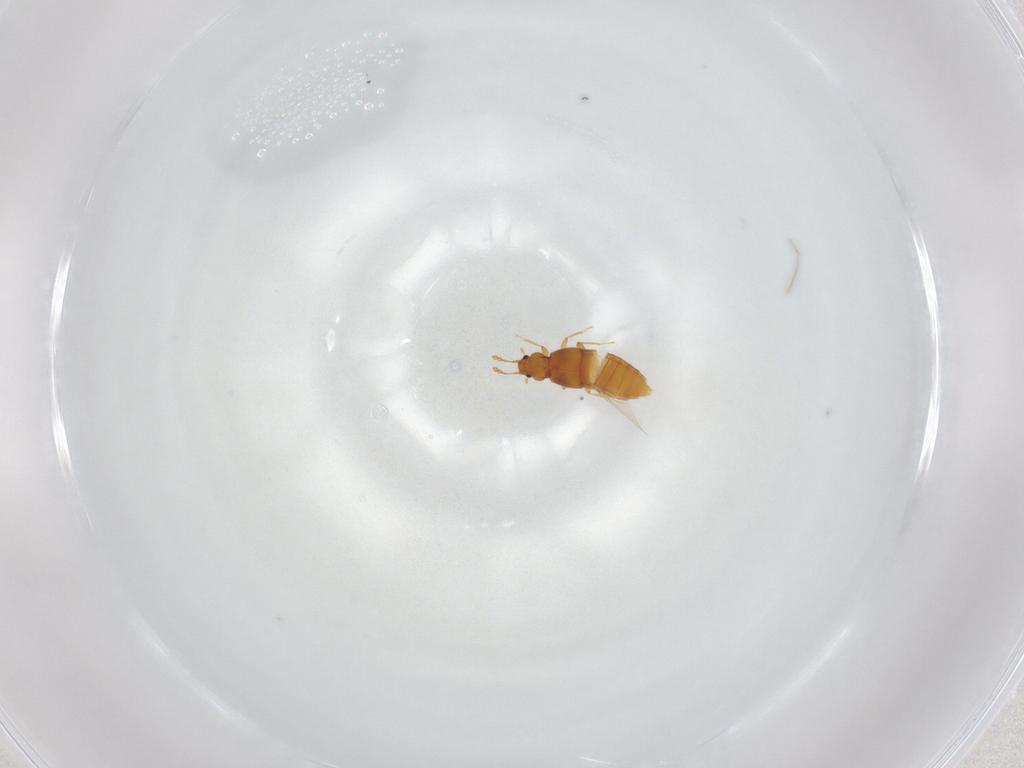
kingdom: Animalia
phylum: Arthropoda
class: Insecta
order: Coleoptera
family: Staphylinidae
